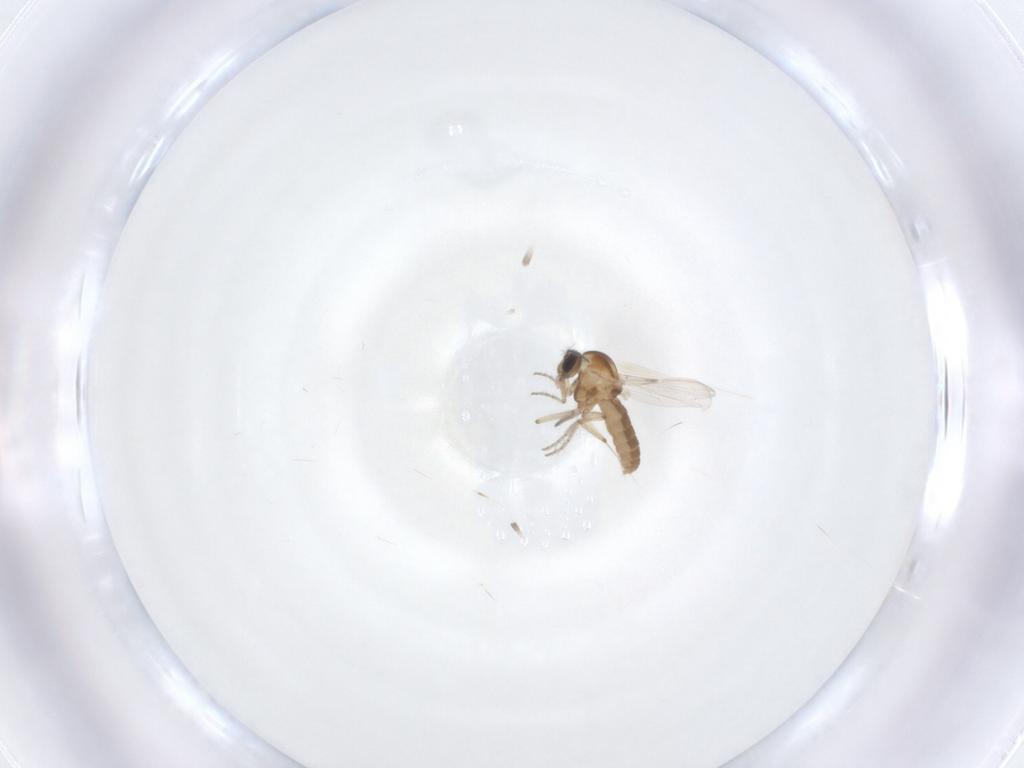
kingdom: Animalia
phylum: Arthropoda
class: Insecta
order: Diptera
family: Ceratopogonidae
